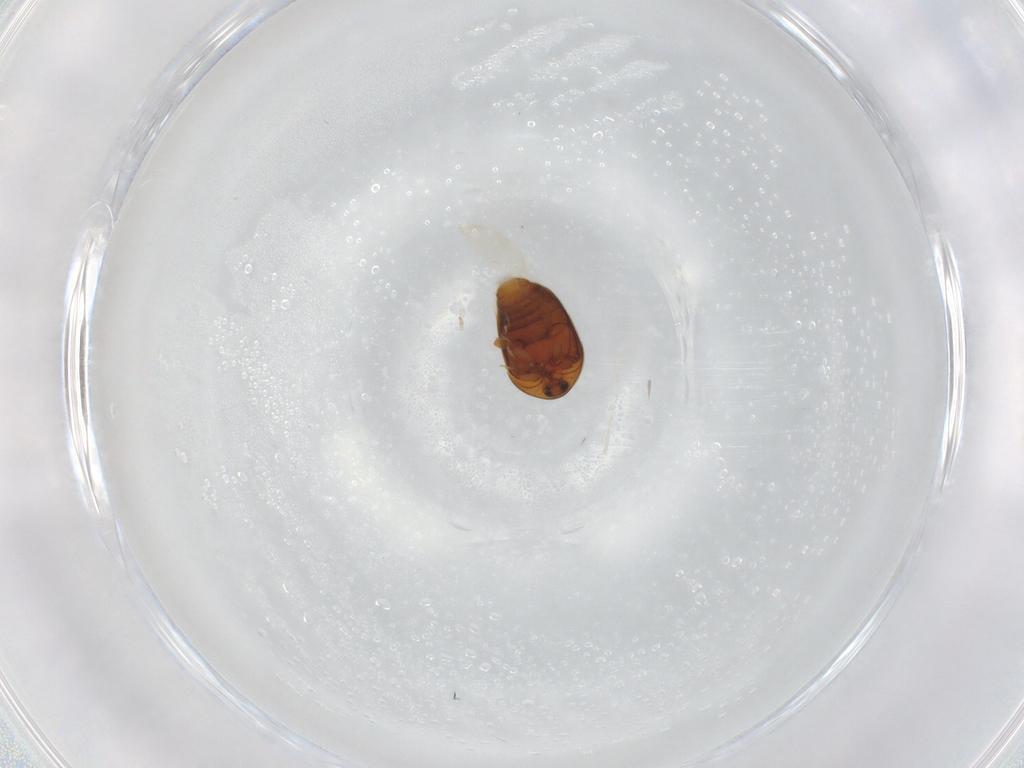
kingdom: Animalia
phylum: Arthropoda
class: Insecta
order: Coleoptera
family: Corylophidae
